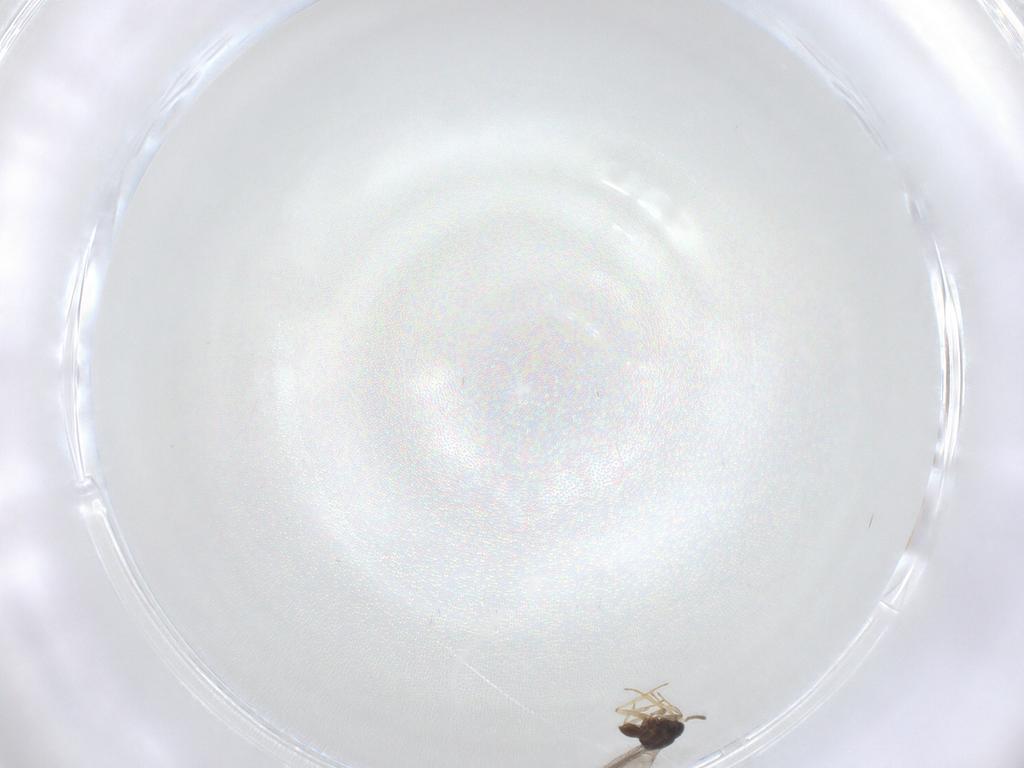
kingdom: Animalia
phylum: Arthropoda
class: Insecta
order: Hymenoptera
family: Scelionidae
